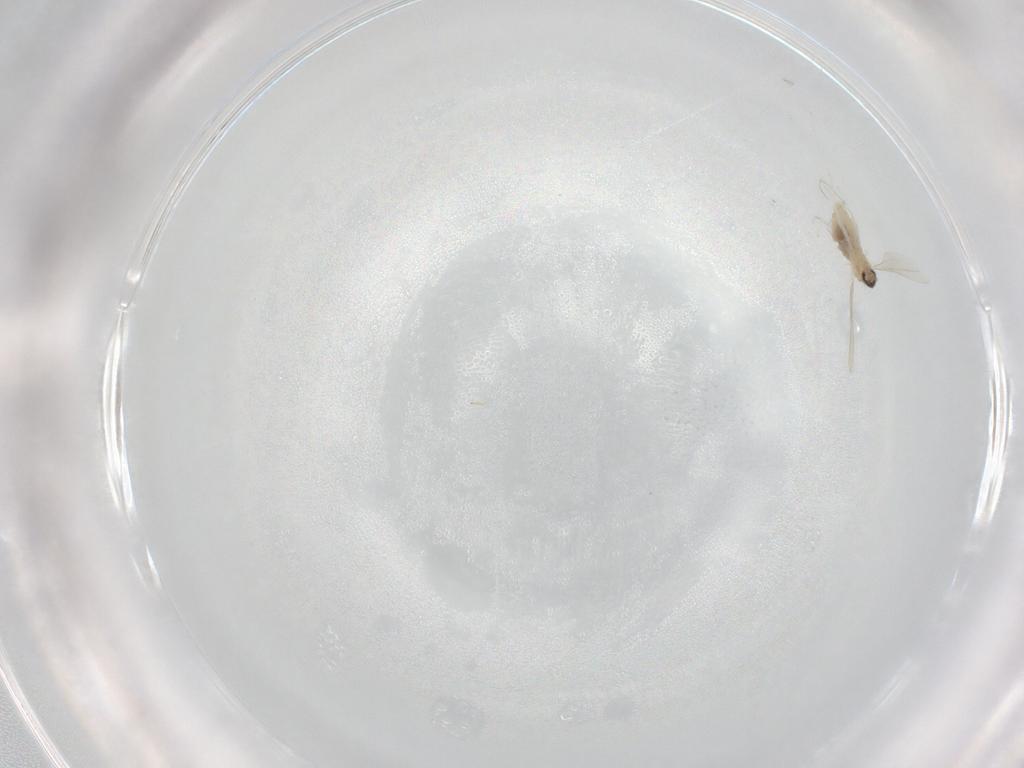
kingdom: Animalia
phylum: Arthropoda
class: Insecta
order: Diptera
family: Cecidomyiidae
